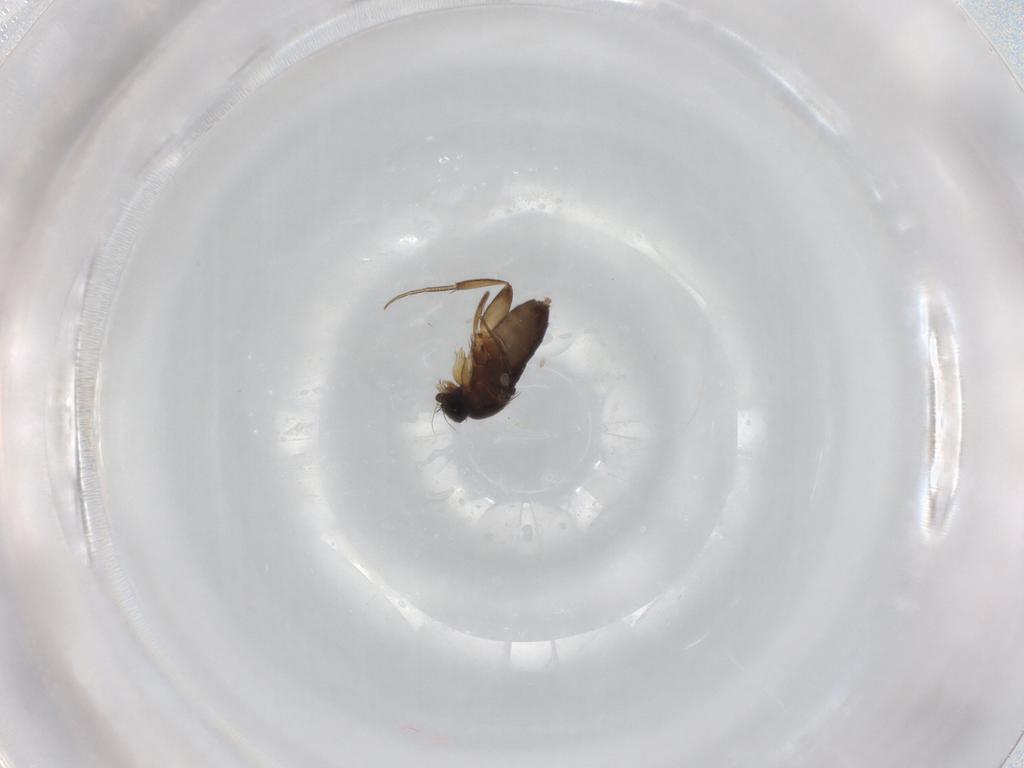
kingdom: Animalia
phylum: Arthropoda
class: Insecta
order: Diptera
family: Phoridae
